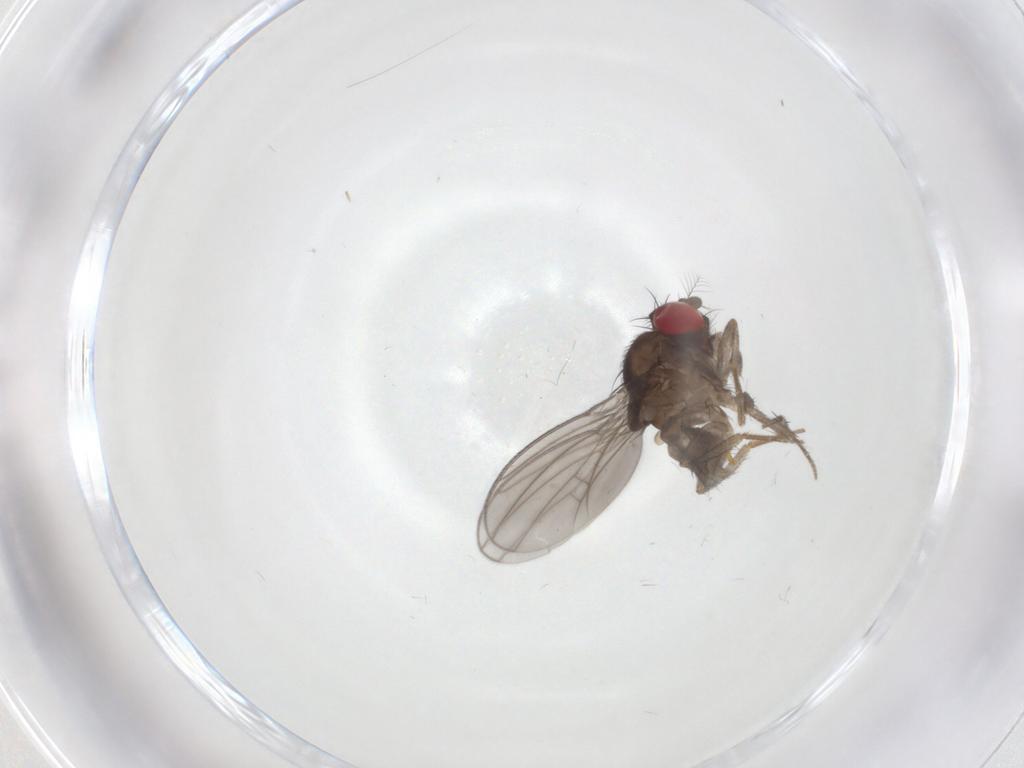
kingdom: Animalia
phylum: Arthropoda
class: Insecta
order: Diptera
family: Drosophilidae
